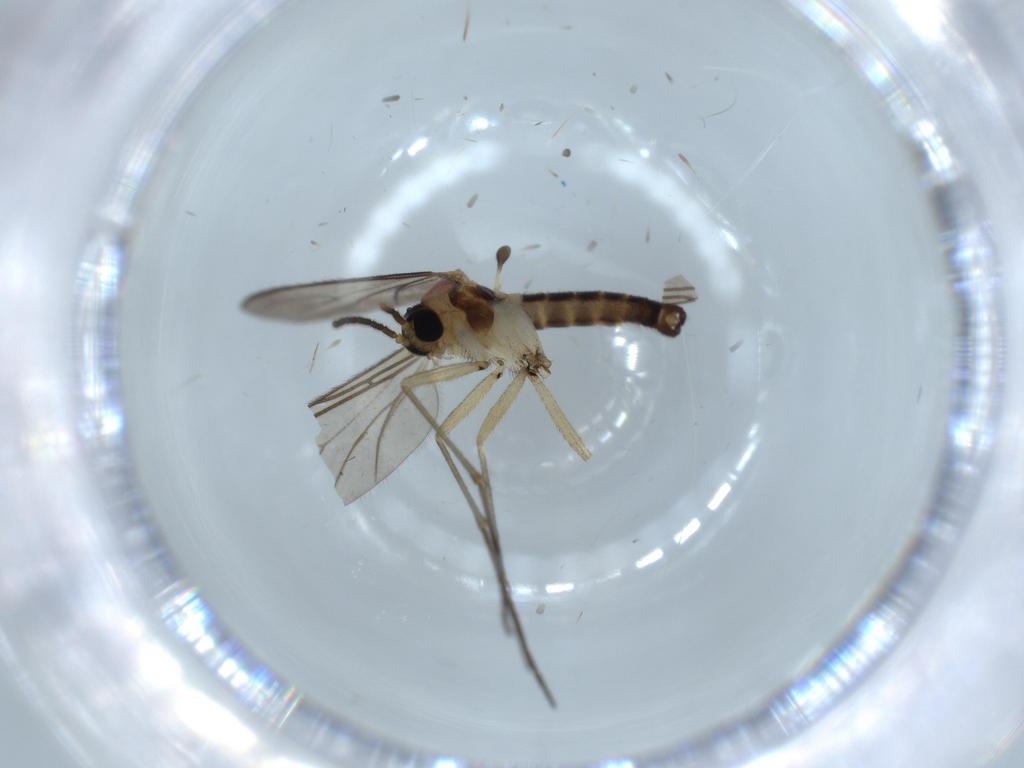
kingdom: Animalia
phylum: Arthropoda
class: Insecta
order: Diptera
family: Sciaridae
